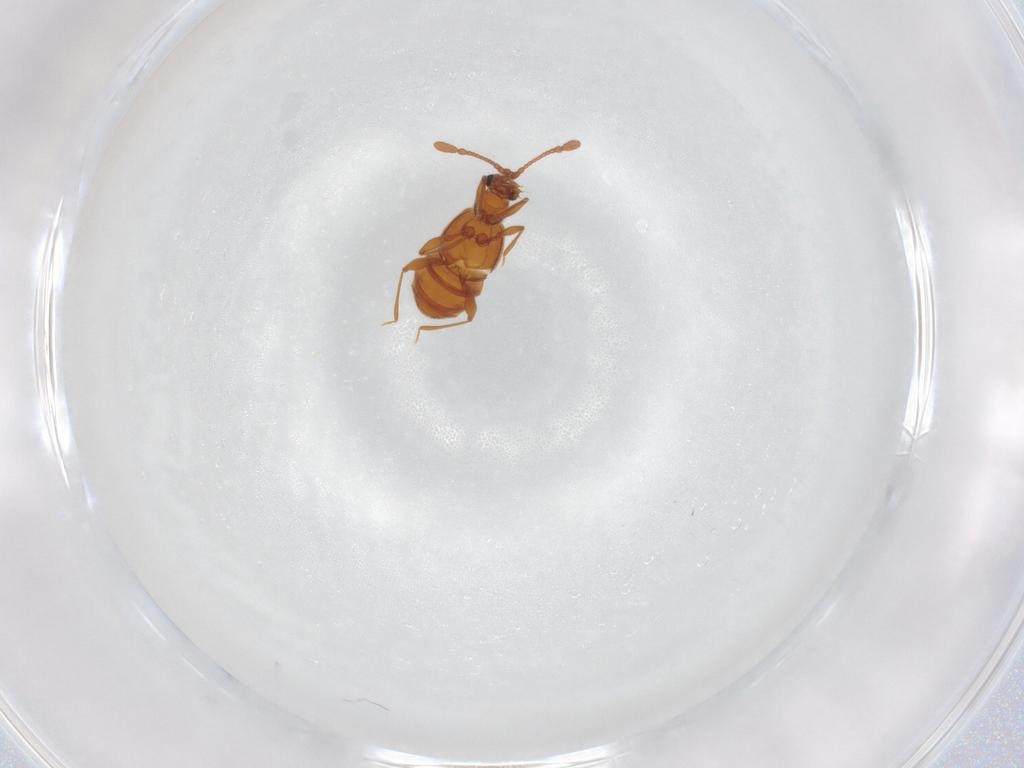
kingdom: Animalia
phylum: Arthropoda
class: Insecta
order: Coleoptera
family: Staphylinidae
